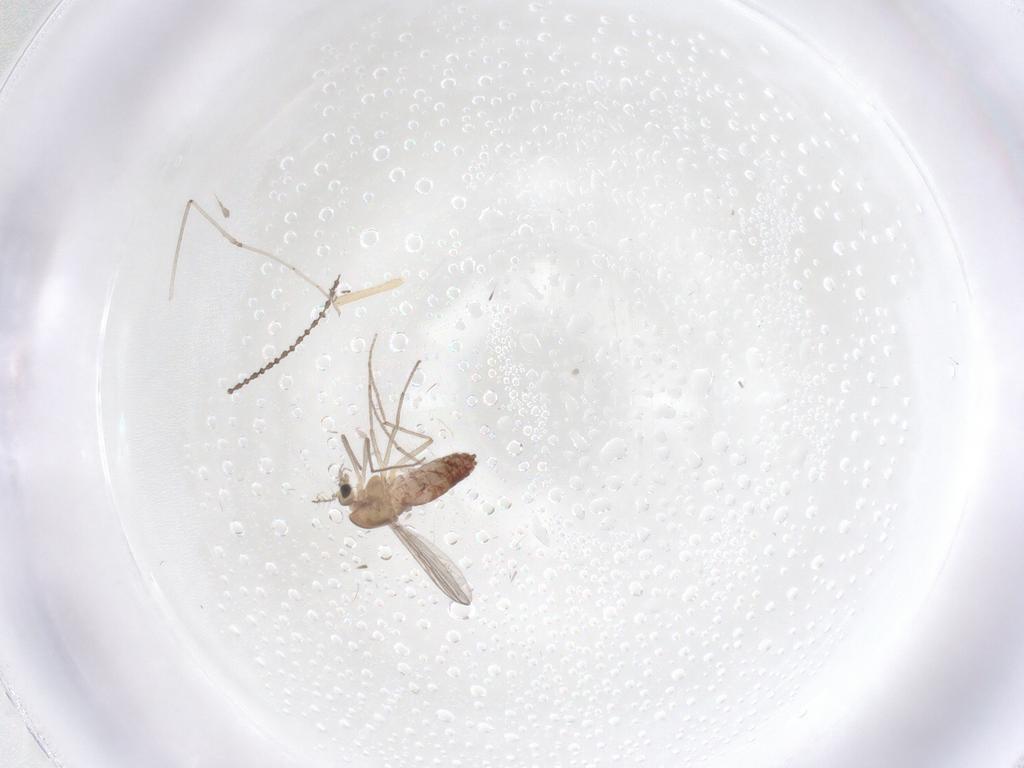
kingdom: Animalia
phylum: Arthropoda
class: Insecta
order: Diptera
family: Chironomidae
